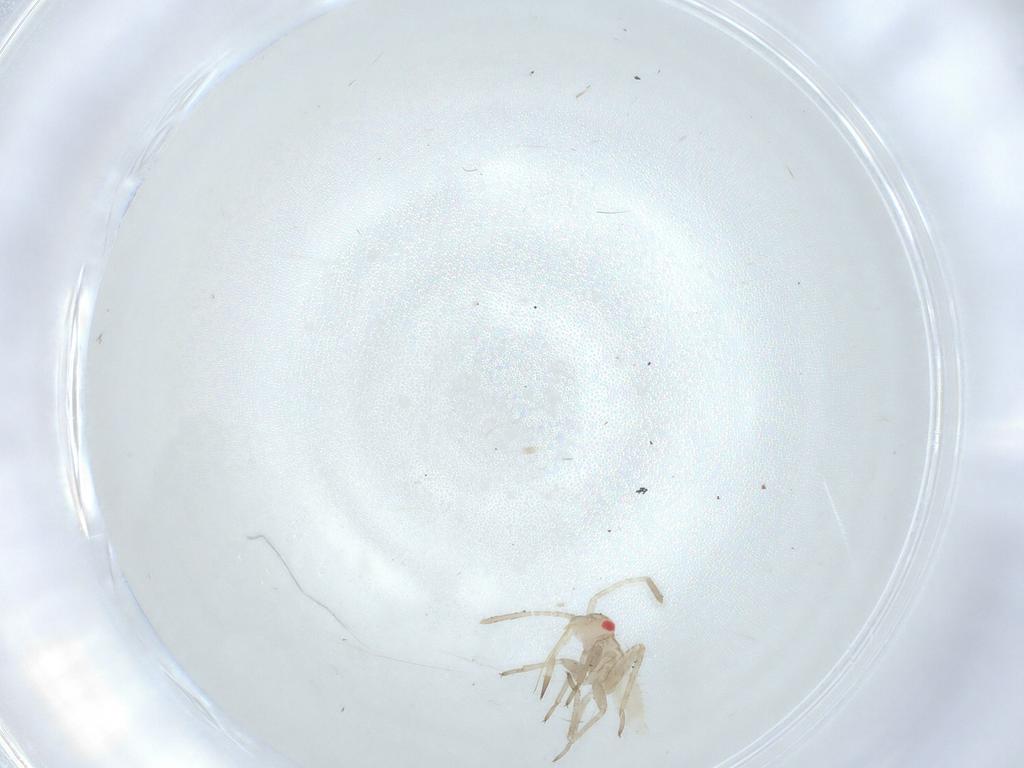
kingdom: Animalia
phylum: Arthropoda
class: Insecta
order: Hemiptera
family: Miridae
